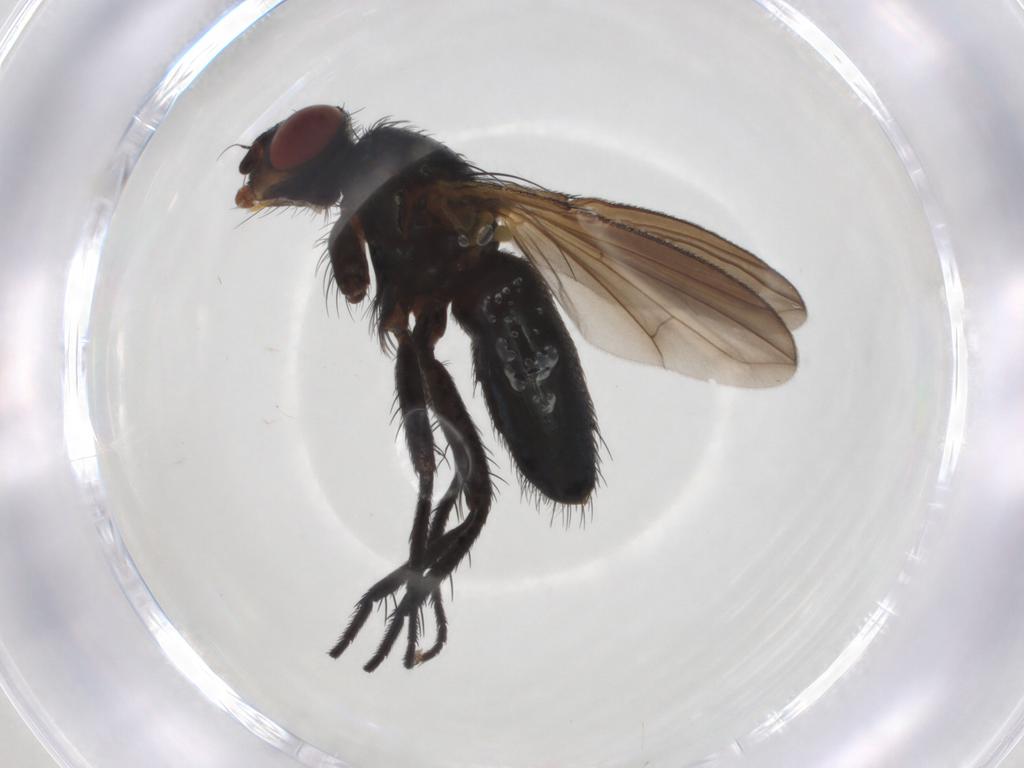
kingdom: Animalia
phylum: Arthropoda
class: Insecta
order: Diptera
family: Calliphoridae
